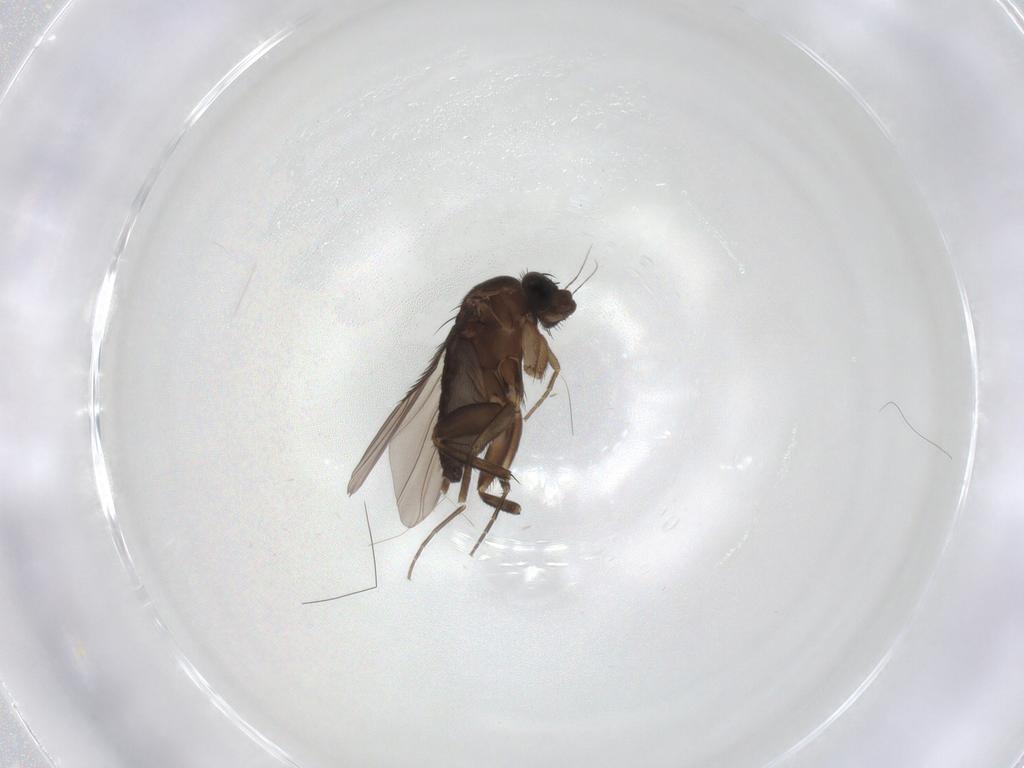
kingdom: Animalia
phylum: Arthropoda
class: Insecta
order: Diptera
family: Phoridae
